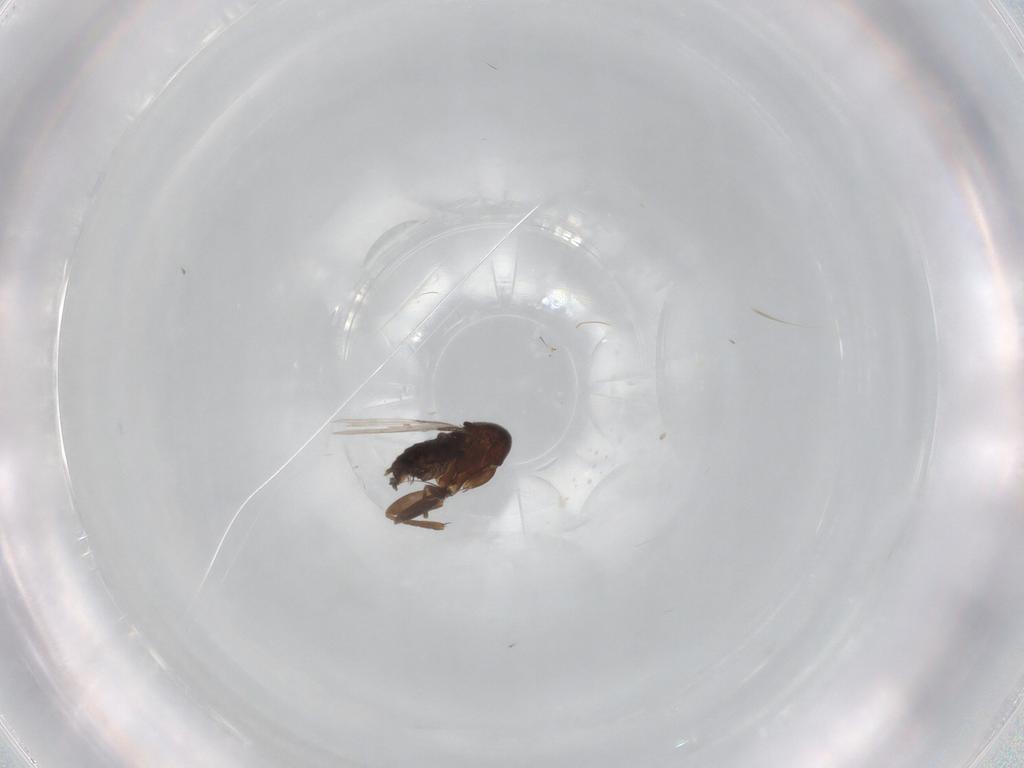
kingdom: Animalia
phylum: Arthropoda
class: Insecta
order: Diptera
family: Phoridae
